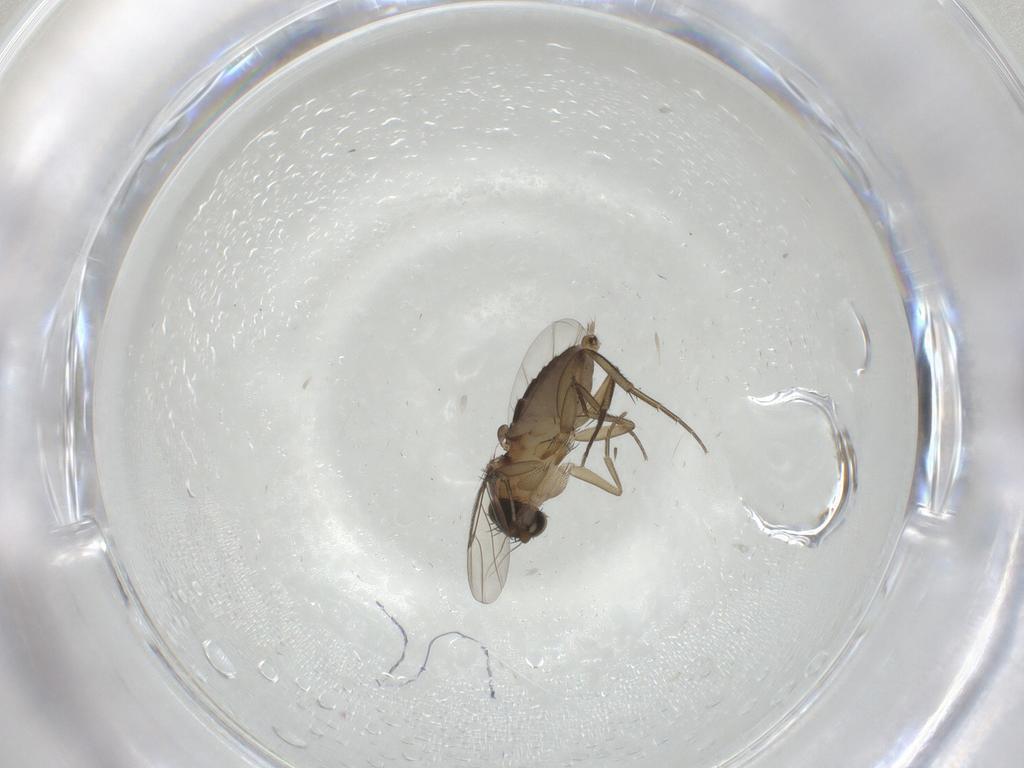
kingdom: Animalia
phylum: Arthropoda
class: Insecta
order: Diptera
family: Phoridae
